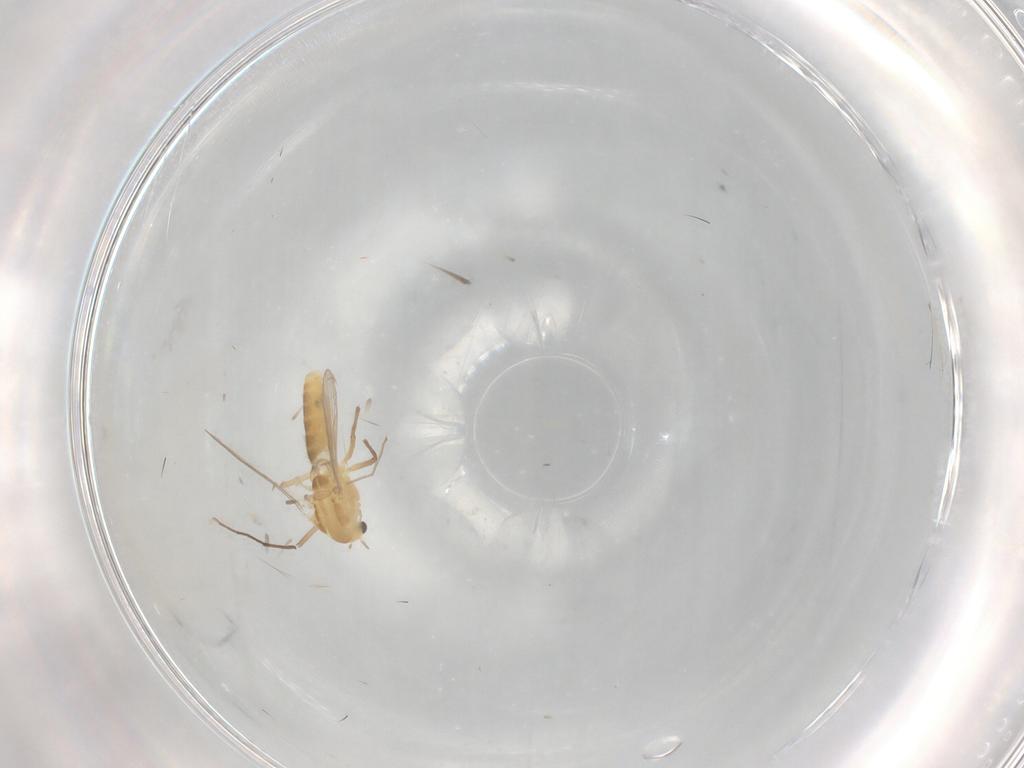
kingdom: Animalia
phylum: Arthropoda
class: Insecta
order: Diptera
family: Chironomidae
